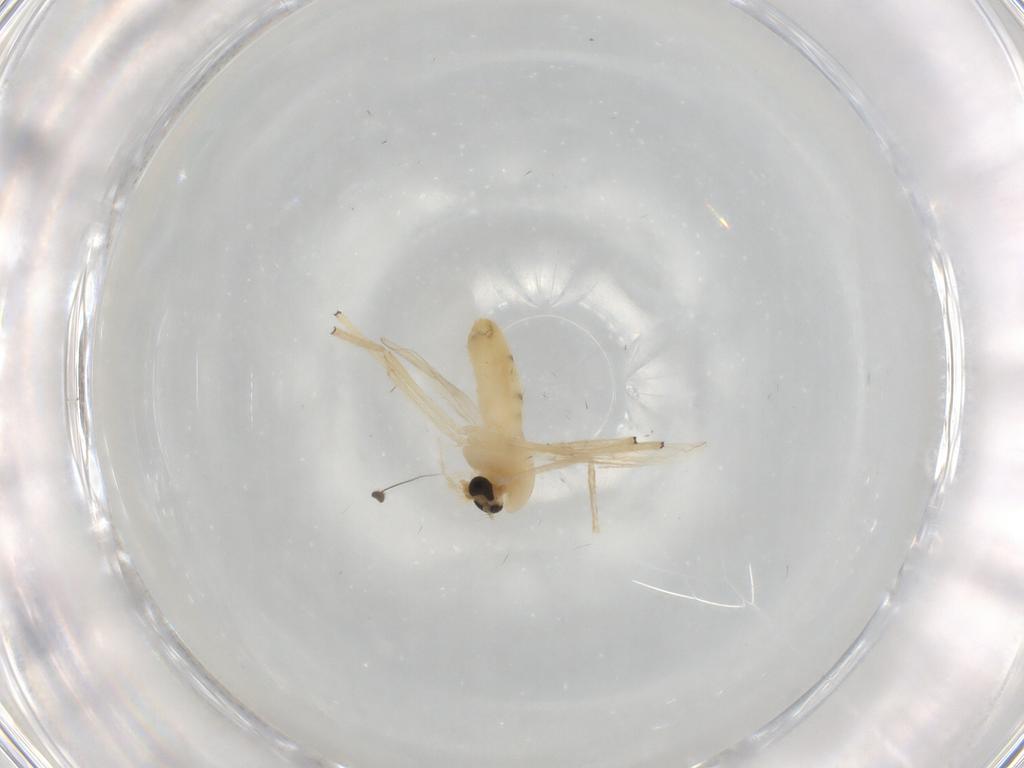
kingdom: Animalia
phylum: Arthropoda
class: Insecta
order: Diptera
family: Chironomidae
